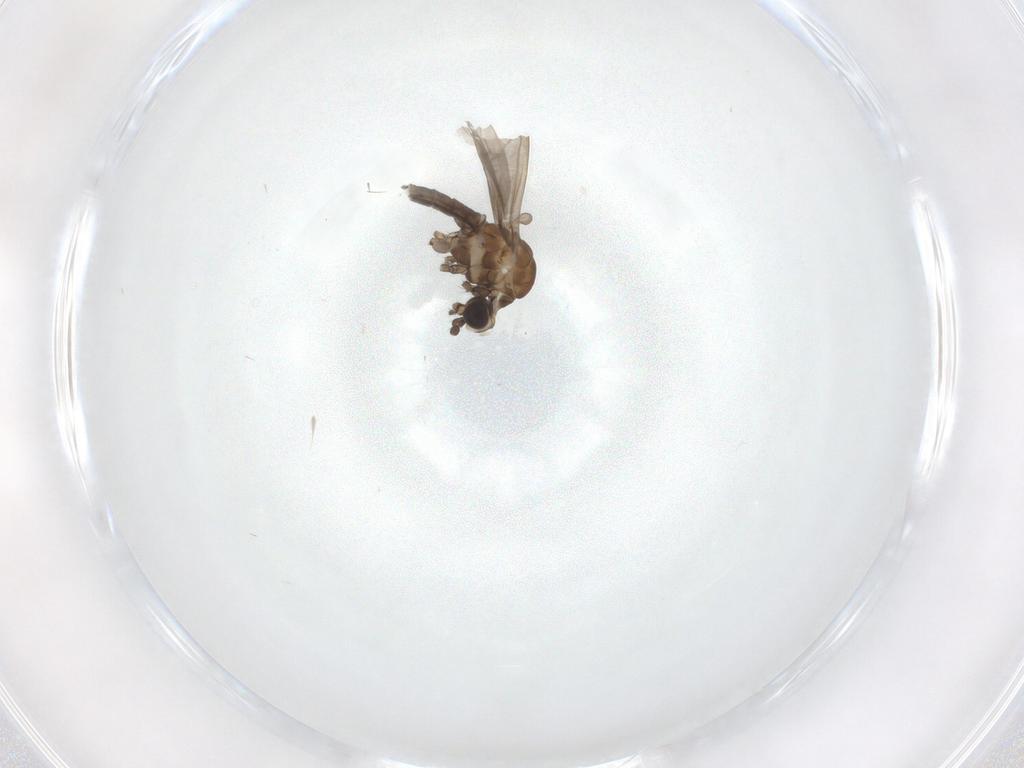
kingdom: Animalia
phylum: Arthropoda
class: Insecta
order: Diptera
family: Limoniidae
